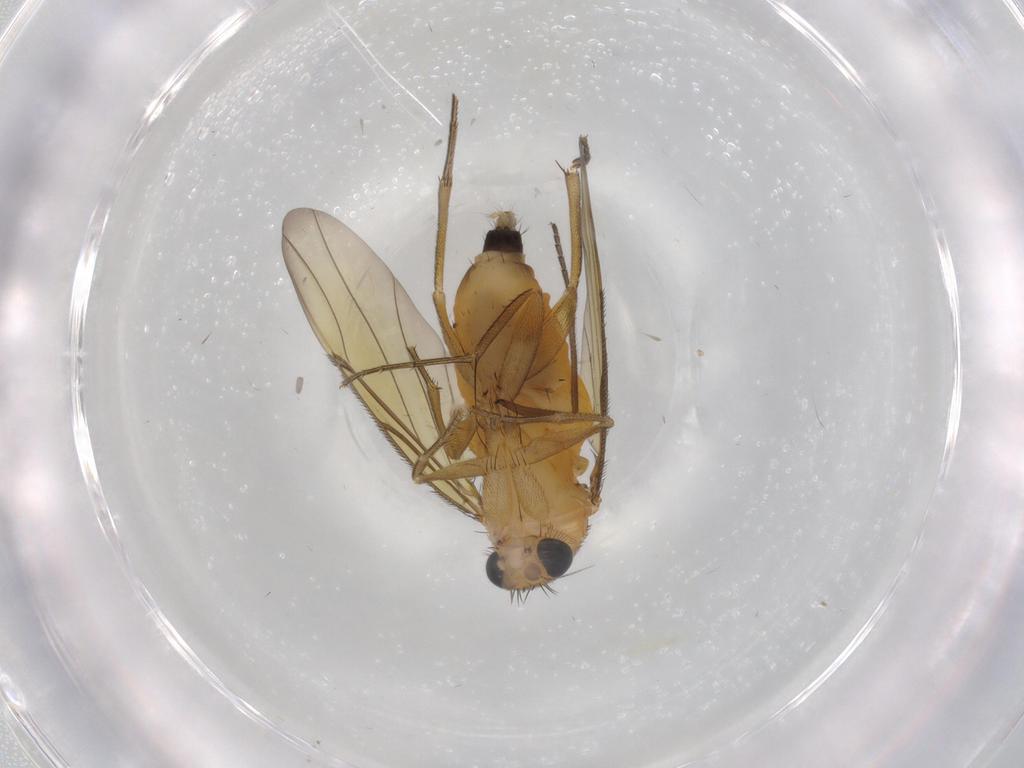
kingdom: Animalia
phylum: Arthropoda
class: Insecta
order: Diptera
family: Sciaridae
